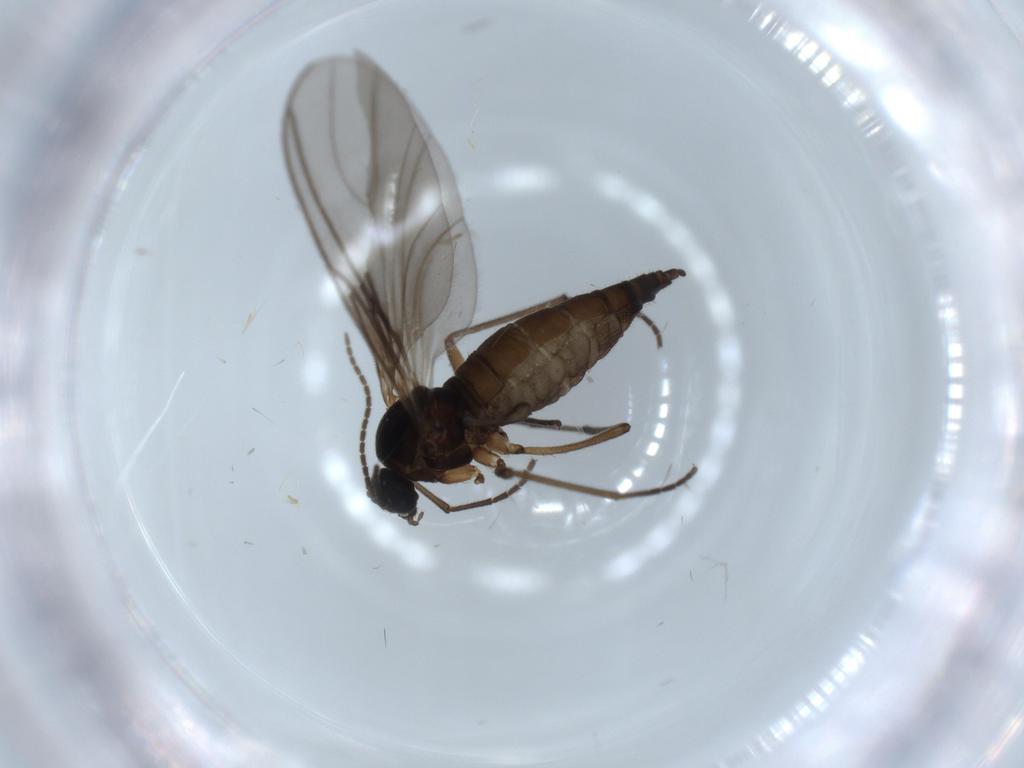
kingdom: Animalia
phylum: Arthropoda
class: Insecta
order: Diptera
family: Sciaridae
